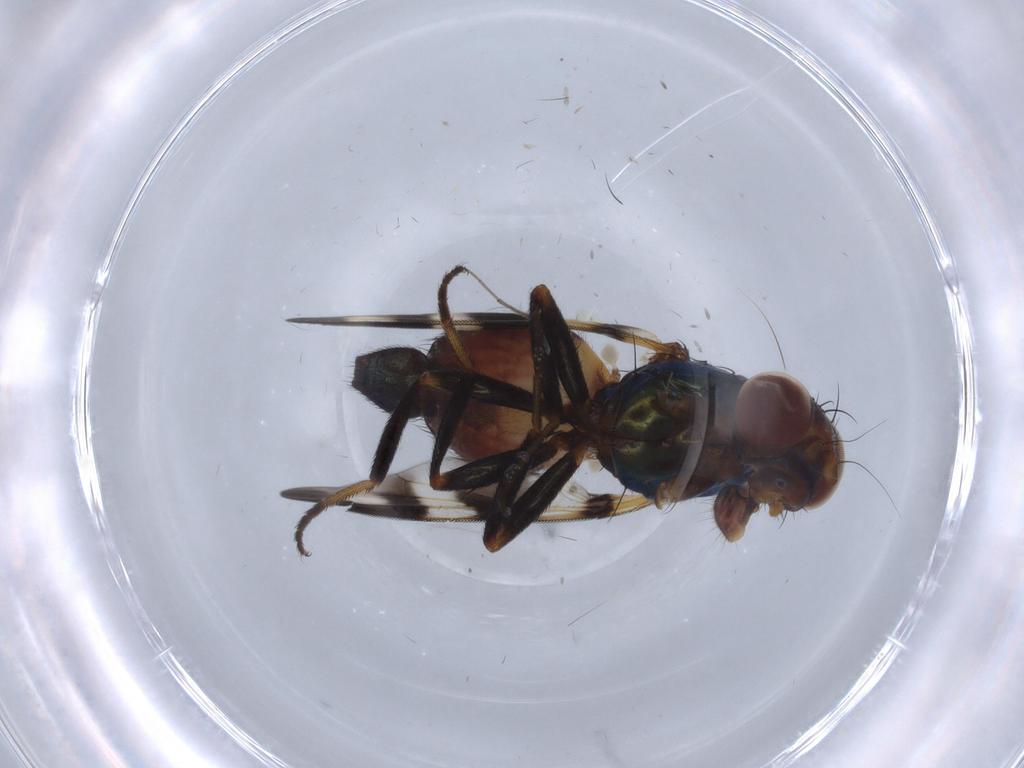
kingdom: Animalia
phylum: Arthropoda
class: Insecta
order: Diptera
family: Ulidiidae
